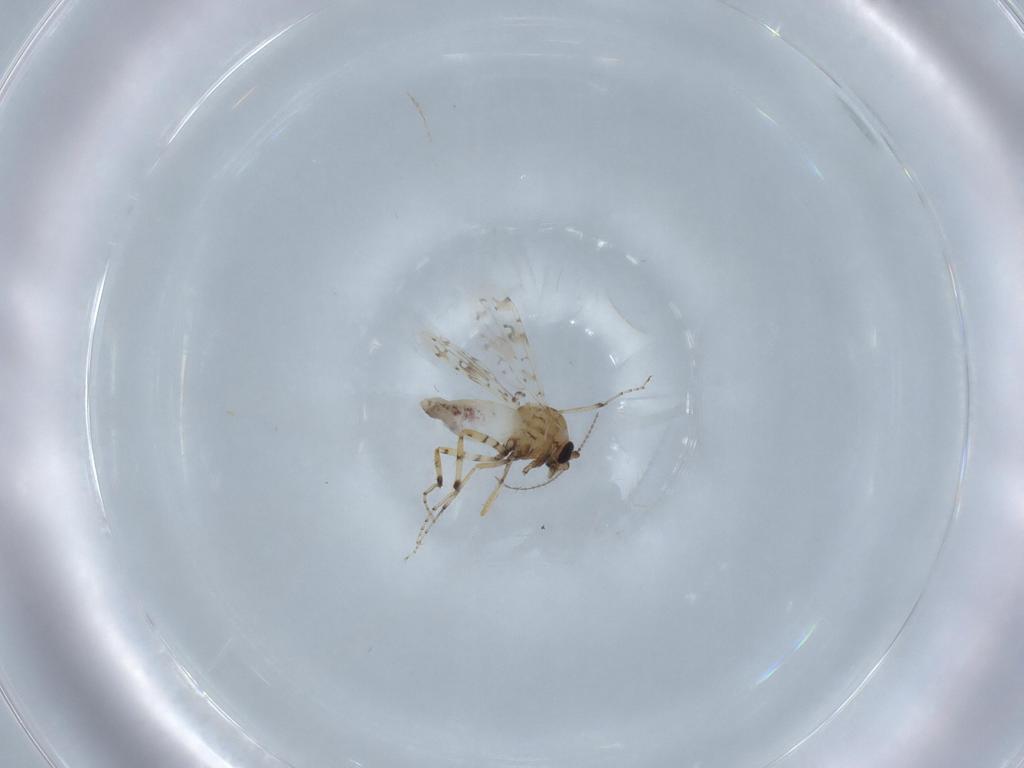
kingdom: Animalia
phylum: Arthropoda
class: Insecta
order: Diptera
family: Ceratopogonidae
